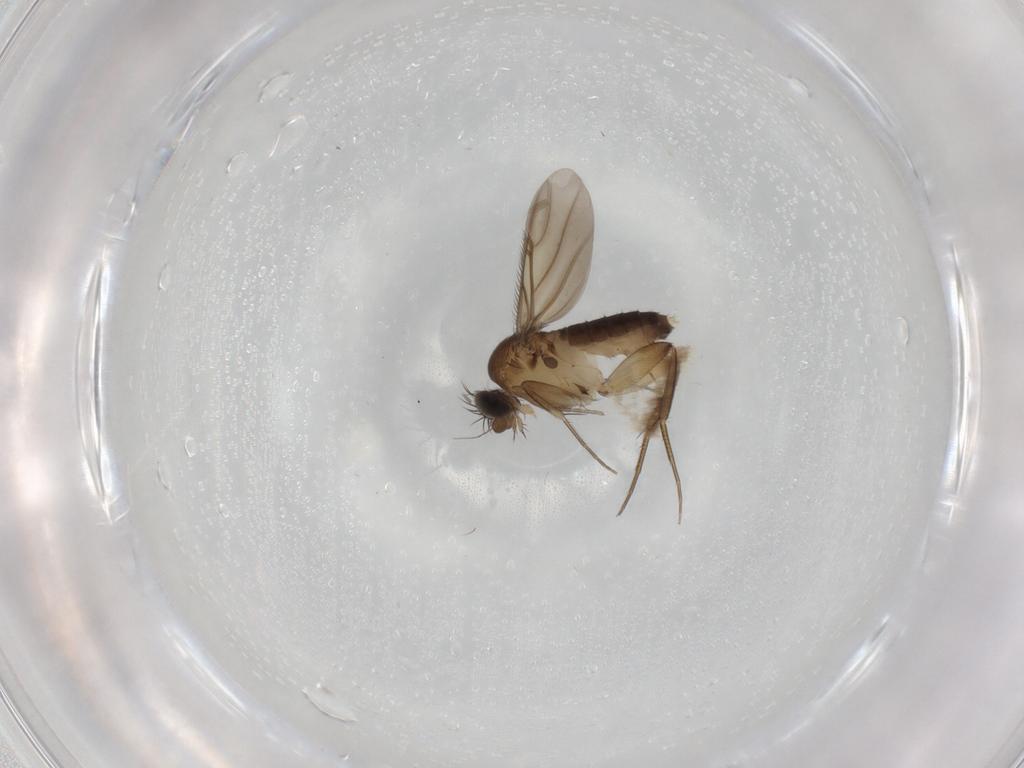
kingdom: Animalia
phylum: Arthropoda
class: Insecta
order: Diptera
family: Phoridae
